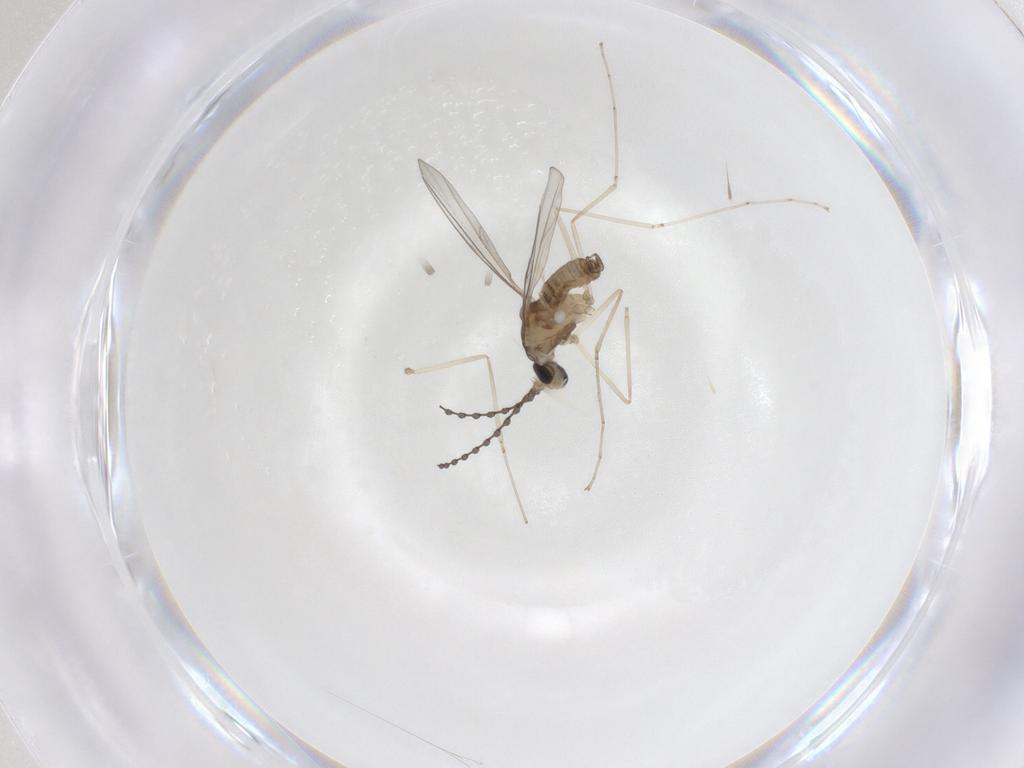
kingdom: Animalia
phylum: Arthropoda
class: Insecta
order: Diptera
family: Cecidomyiidae
